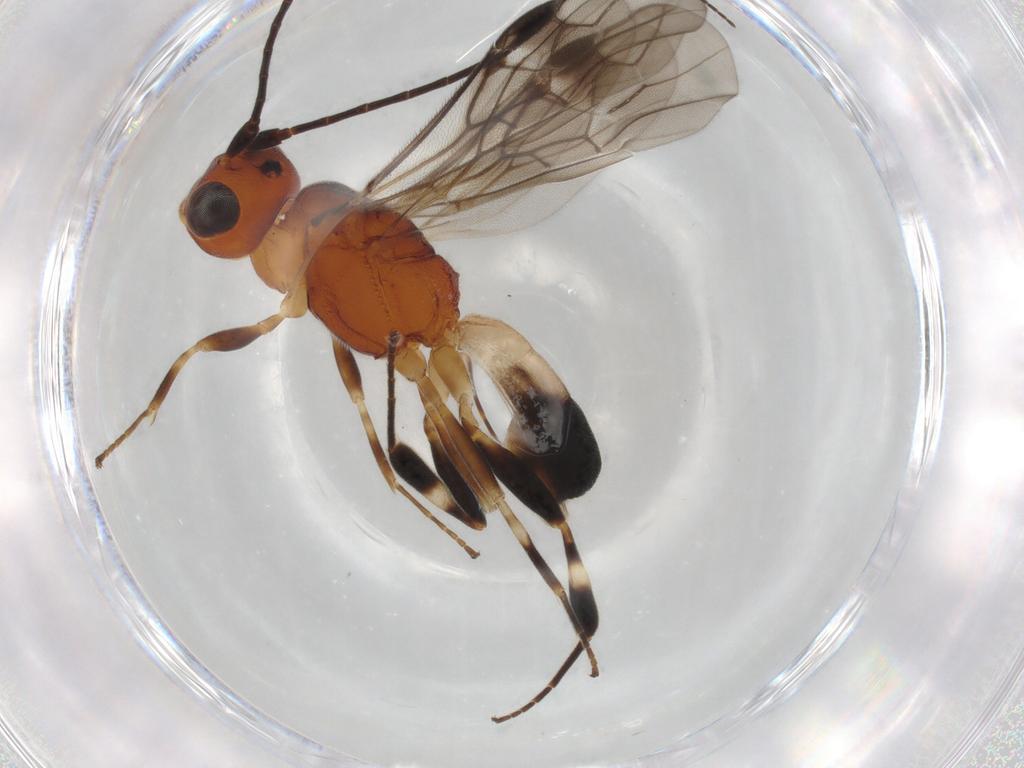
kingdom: Animalia
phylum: Arthropoda
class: Insecta
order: Hymenoptera
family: Braconidae
